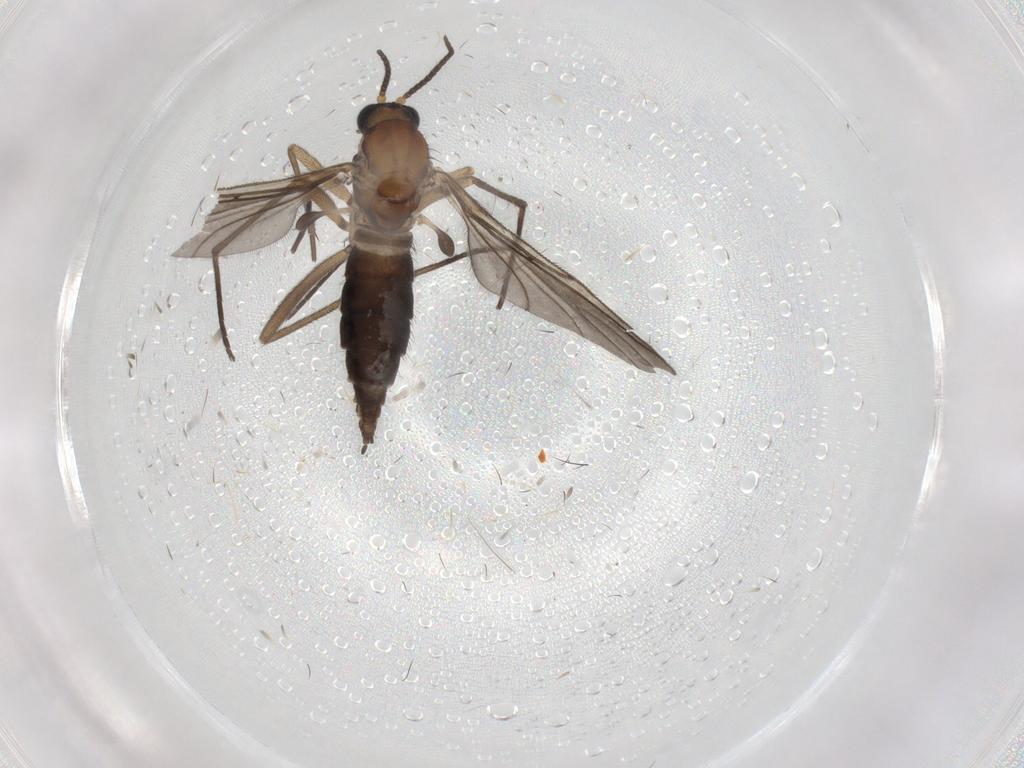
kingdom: Animalia
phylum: Arthropoda
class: Insecta
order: Diptera
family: Sciaridae
